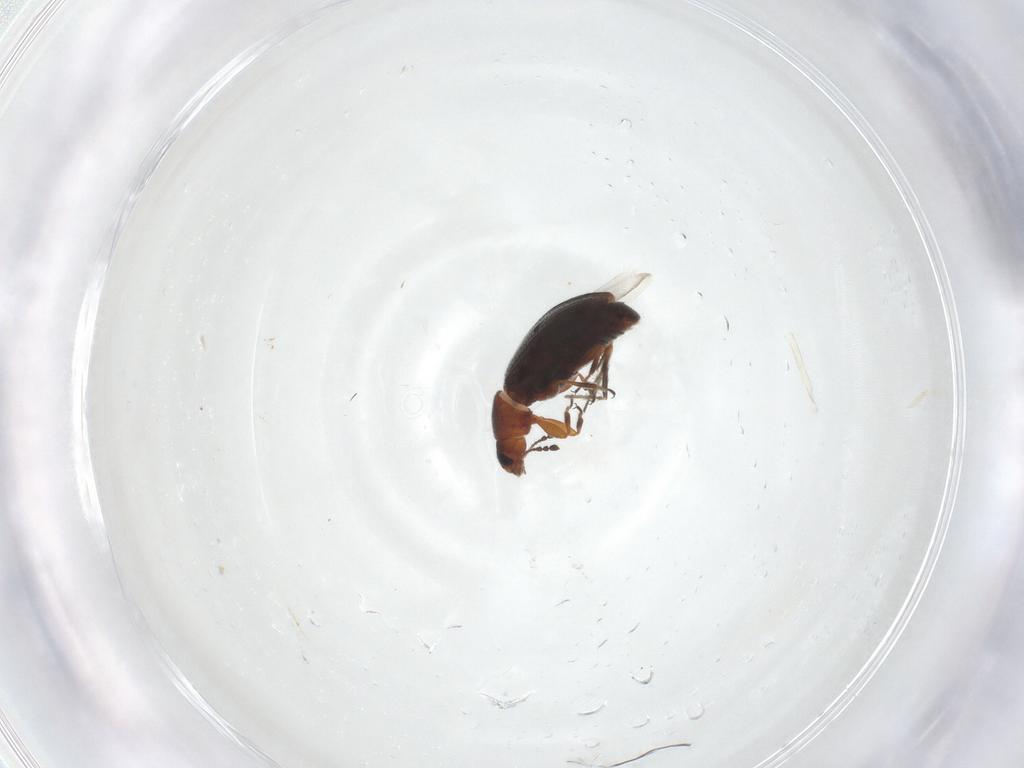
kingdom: Animalia
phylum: Arthropoda
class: Insecta
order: Coleoptera
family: Latridiidae
